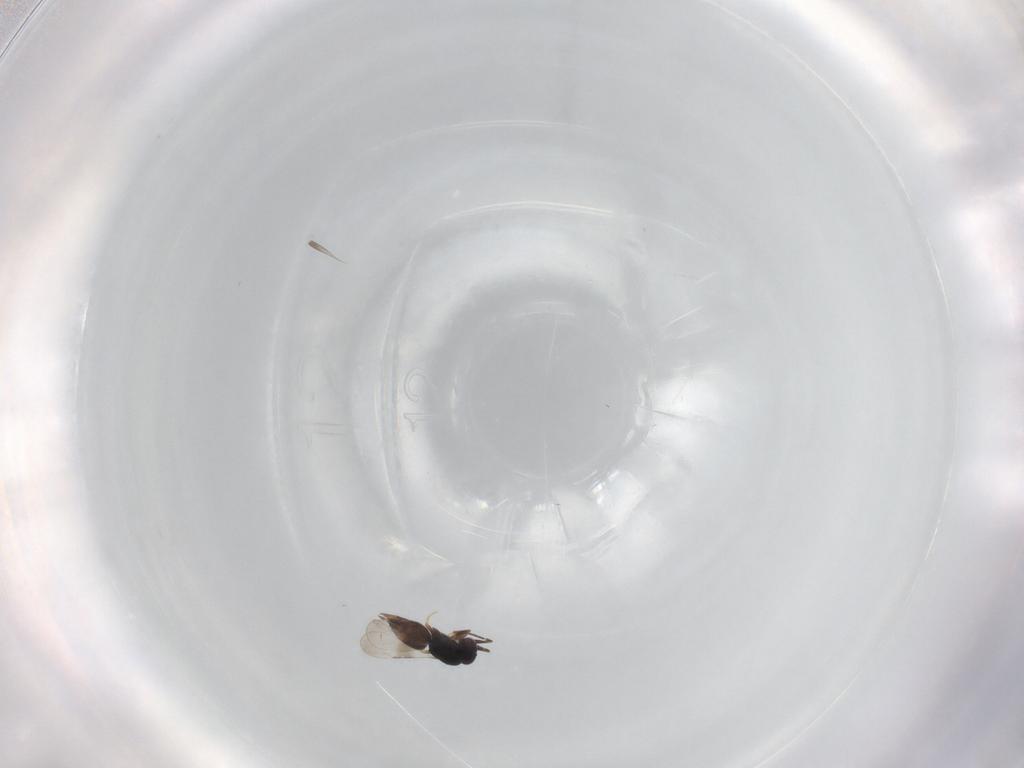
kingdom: Animalia
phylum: Arthropoda
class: Insecta
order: Hymenoptera
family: Ceraphronidae
